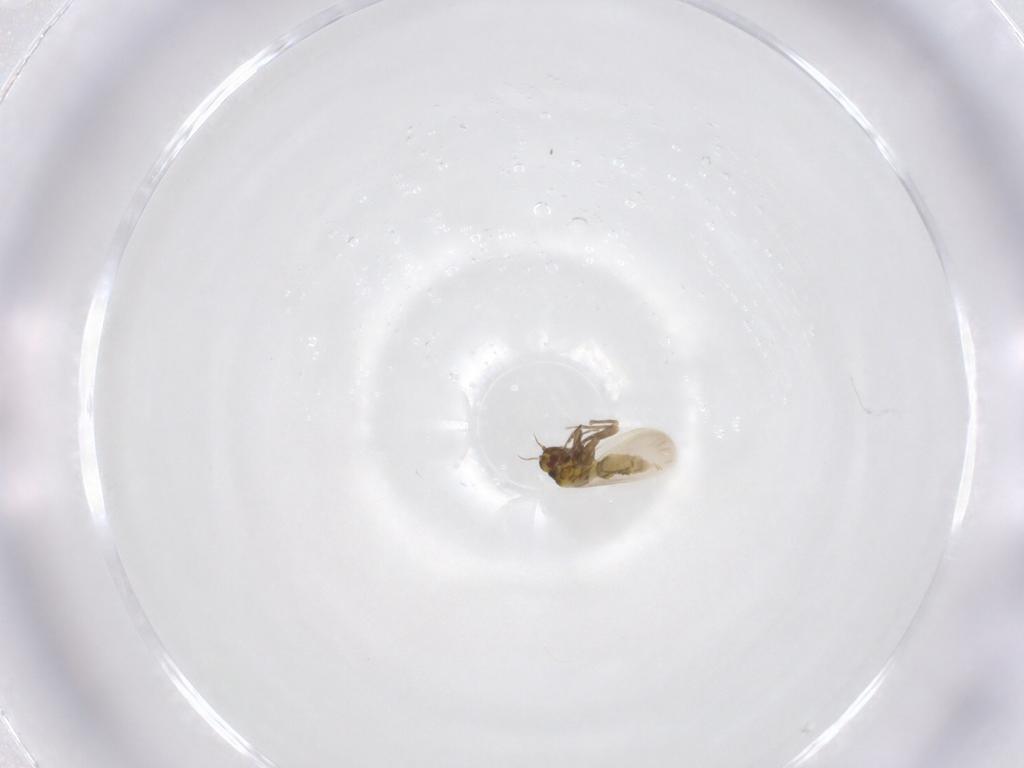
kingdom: Animalia
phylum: Arthropoda
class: Insecta
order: Hemiptera
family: Aleyrodidae
